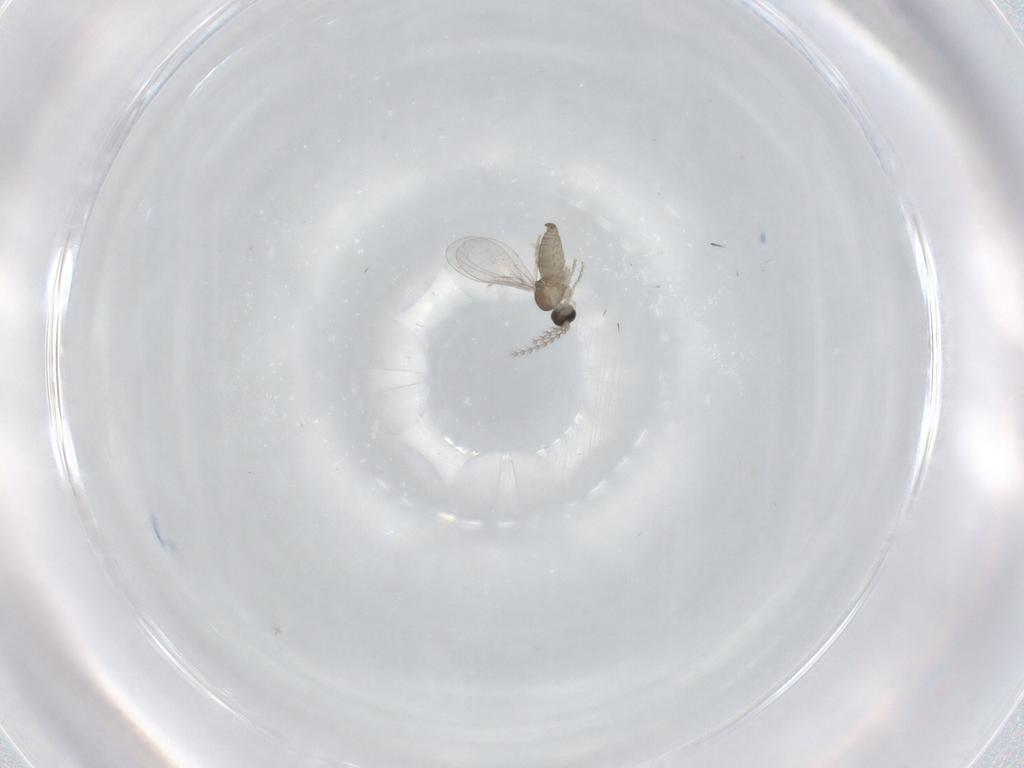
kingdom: Animalia
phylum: Arthropoda
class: Insecta
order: Diptera
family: Cecidomyiidae
